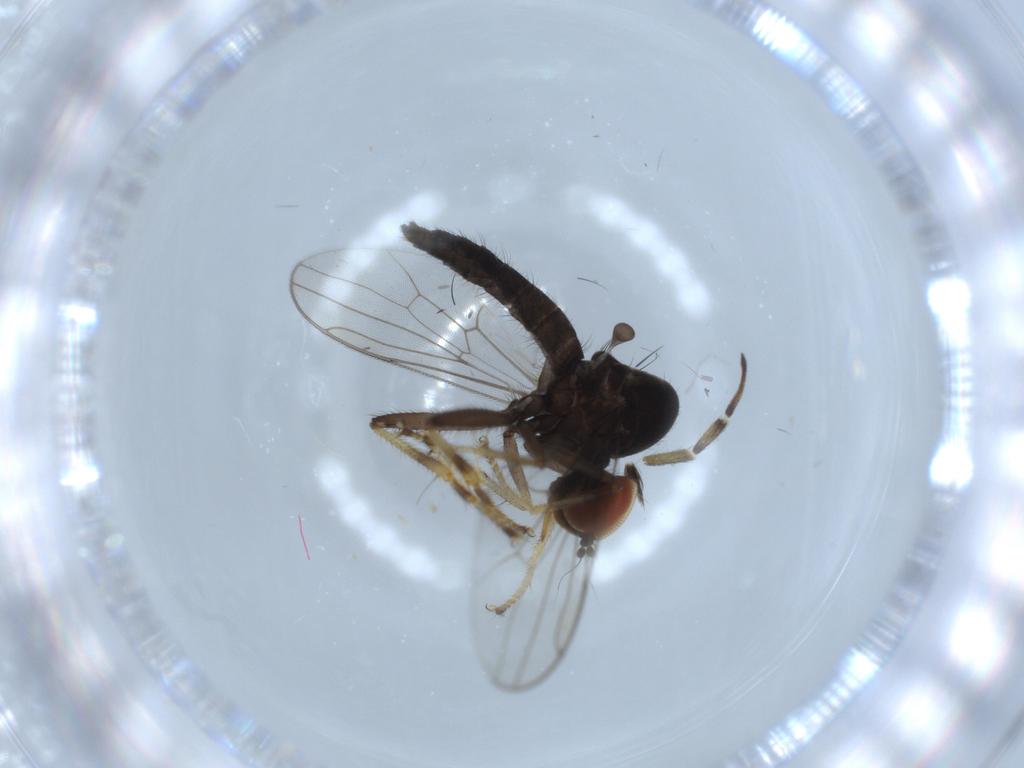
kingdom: Animalia
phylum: Arthropoda
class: Insecta
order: Diptera
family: Hybotidae
